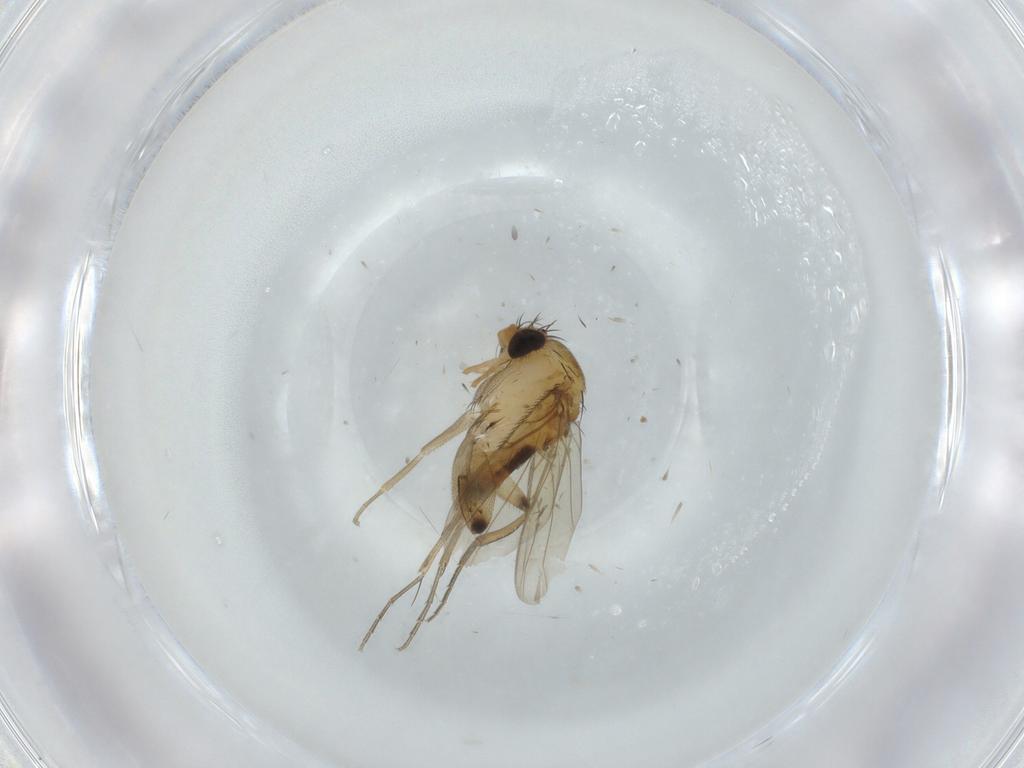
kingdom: Animalia
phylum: Arthropoda
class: Insecta
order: Diptera
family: Phoridae
